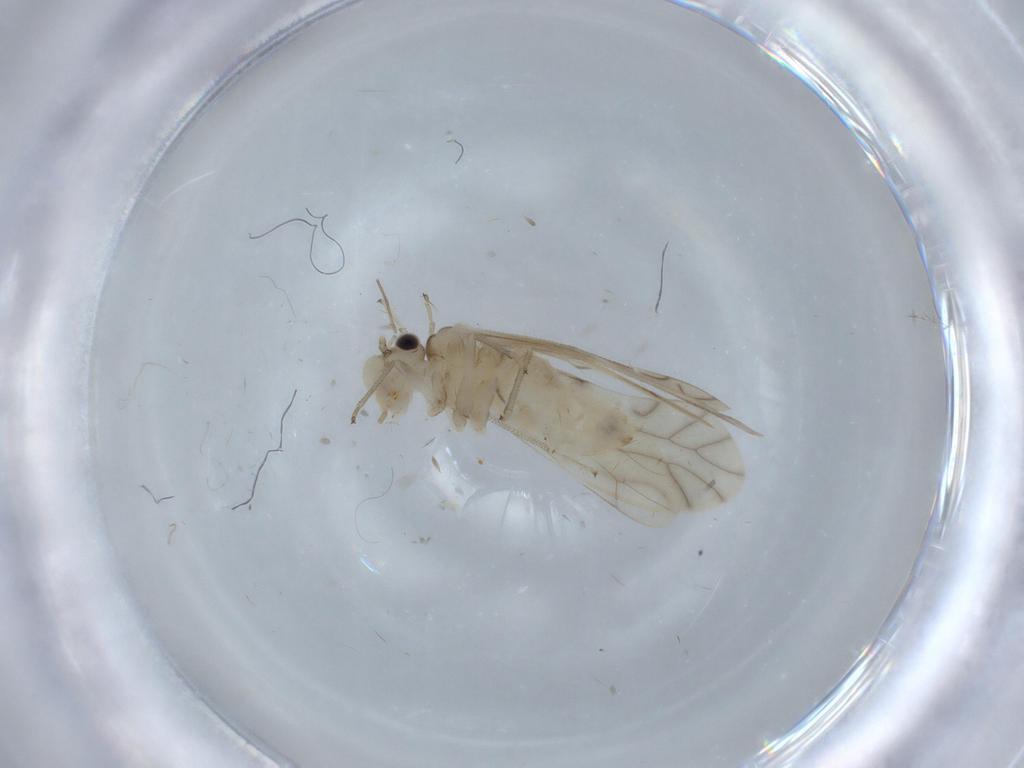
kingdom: Animalia
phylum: Arthropoda
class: Insecta
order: Psocodea
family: Caeciliusidae
